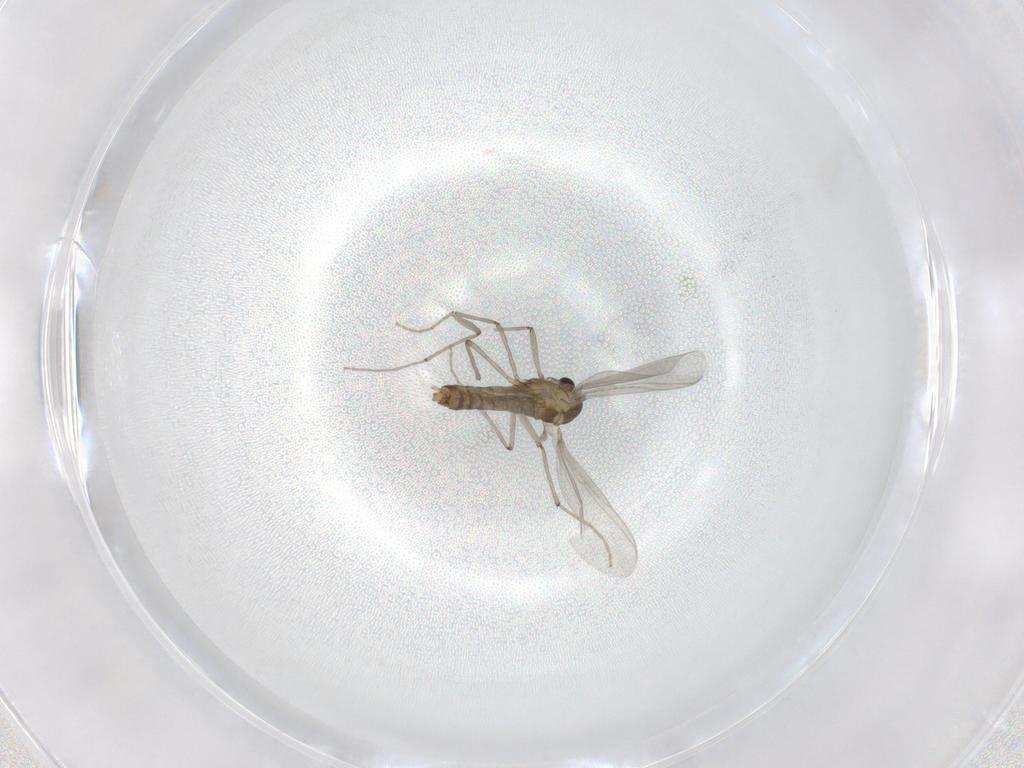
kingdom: Animalia
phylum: Arthropoda
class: Insecta
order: Diptera
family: Chironomidae
